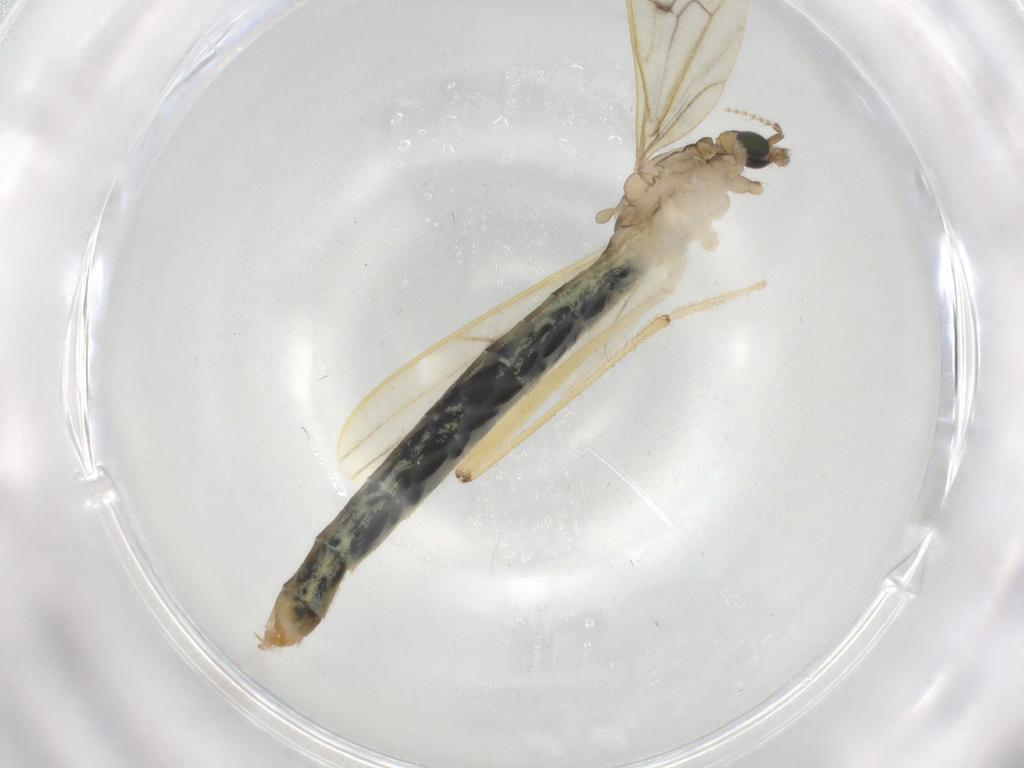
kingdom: Animalia
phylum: Arthropoda
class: Insecta
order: Diptera
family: Limoniidae
